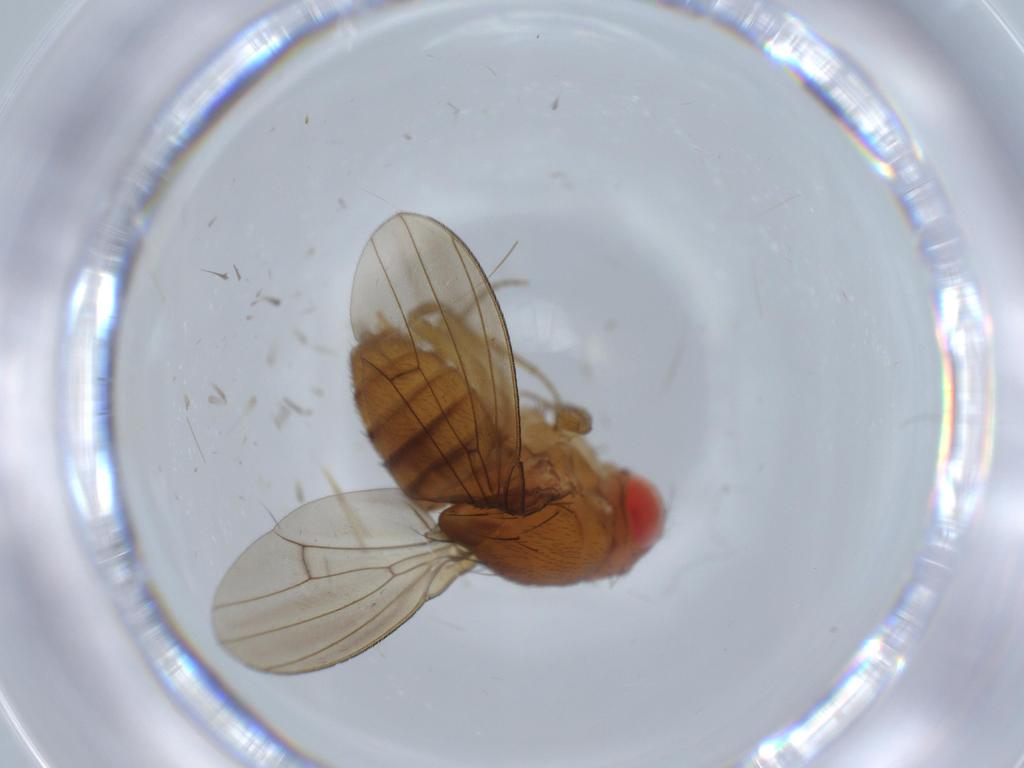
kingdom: Animalia
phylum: Arthropoda
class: Insecta
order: Diptera
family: Drosophilidae
